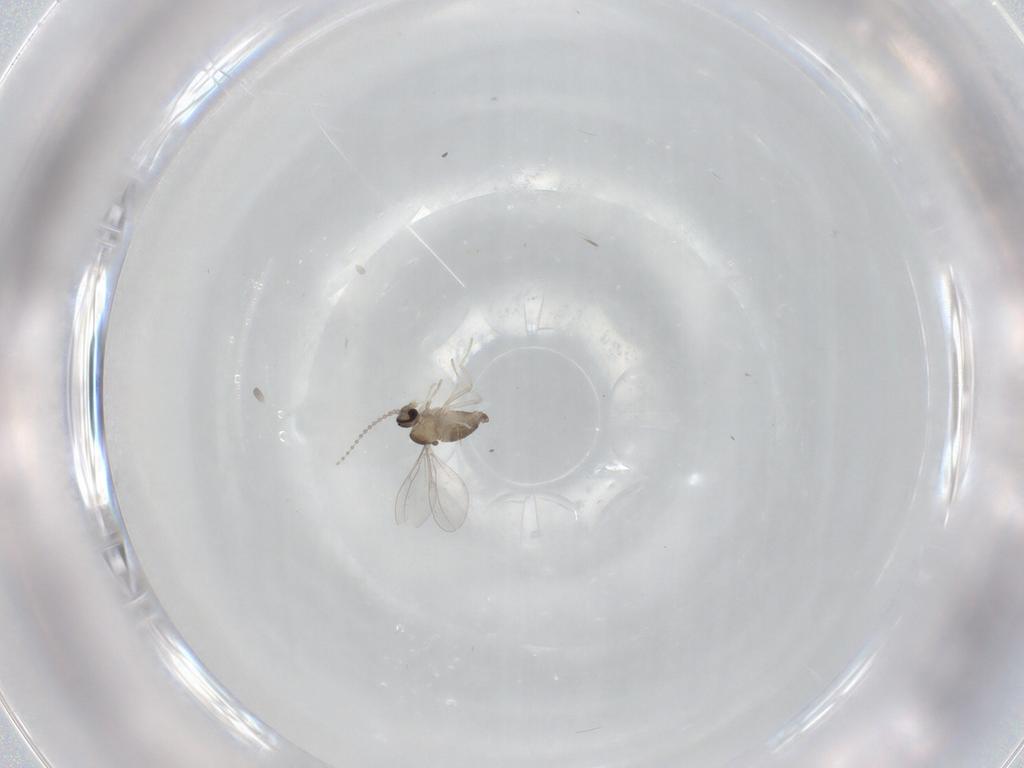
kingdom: Animalia
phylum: Arthropoda
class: Insecta
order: Diptera
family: Cecidomyiidae
